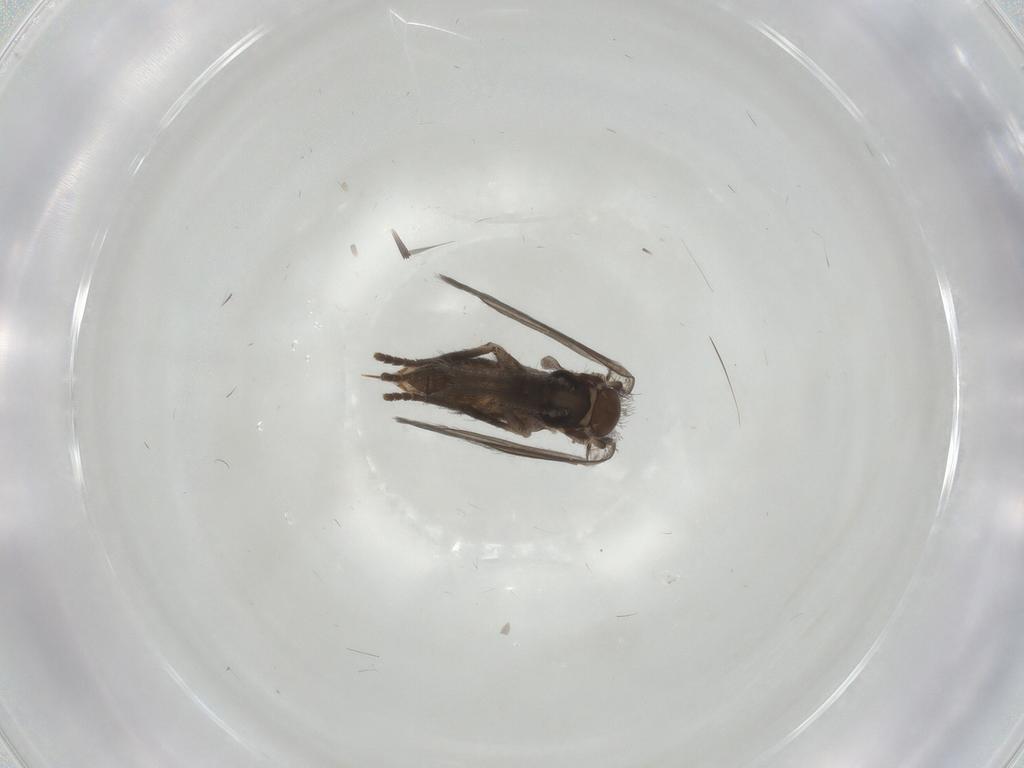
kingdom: Animalia
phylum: Arthropoda
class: Insecta
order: Diptera
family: Psychodidae
